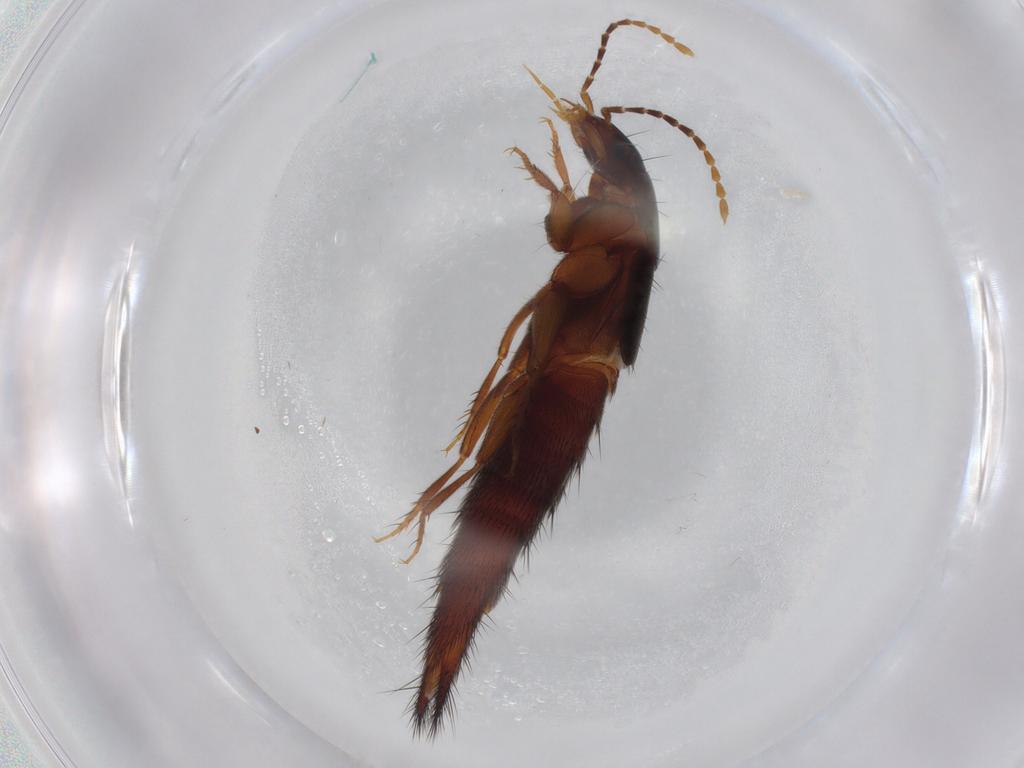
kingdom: Animalia
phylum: Arthropoda
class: Insecta
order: Coleoptera
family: Staphylinidae
